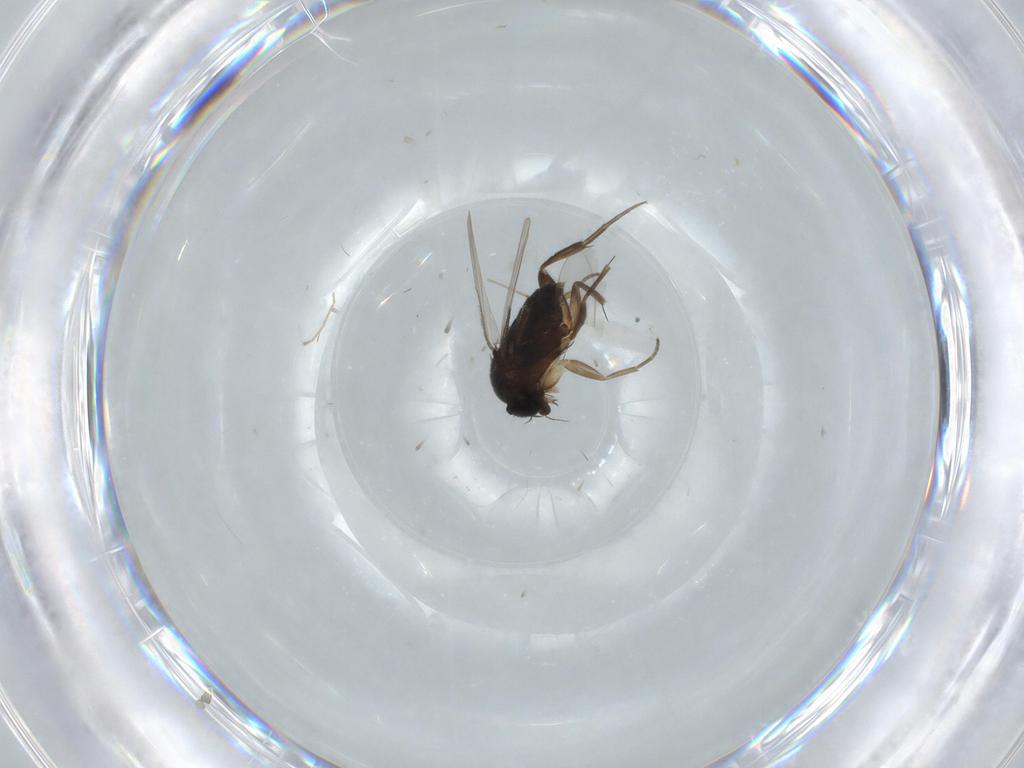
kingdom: Animalia
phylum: Arthropoda
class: Insecta
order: Diptera
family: Phoridae
